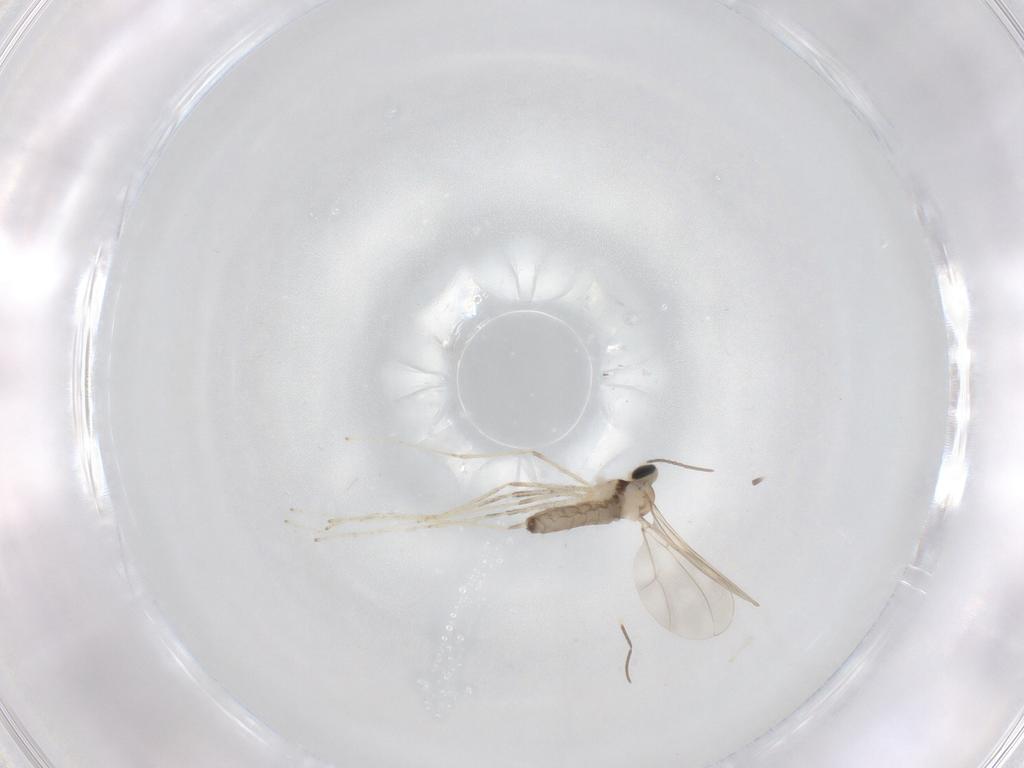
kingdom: Animalia
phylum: Arthropoda
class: Insecta
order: Diptera
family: Cecidomyiidae
